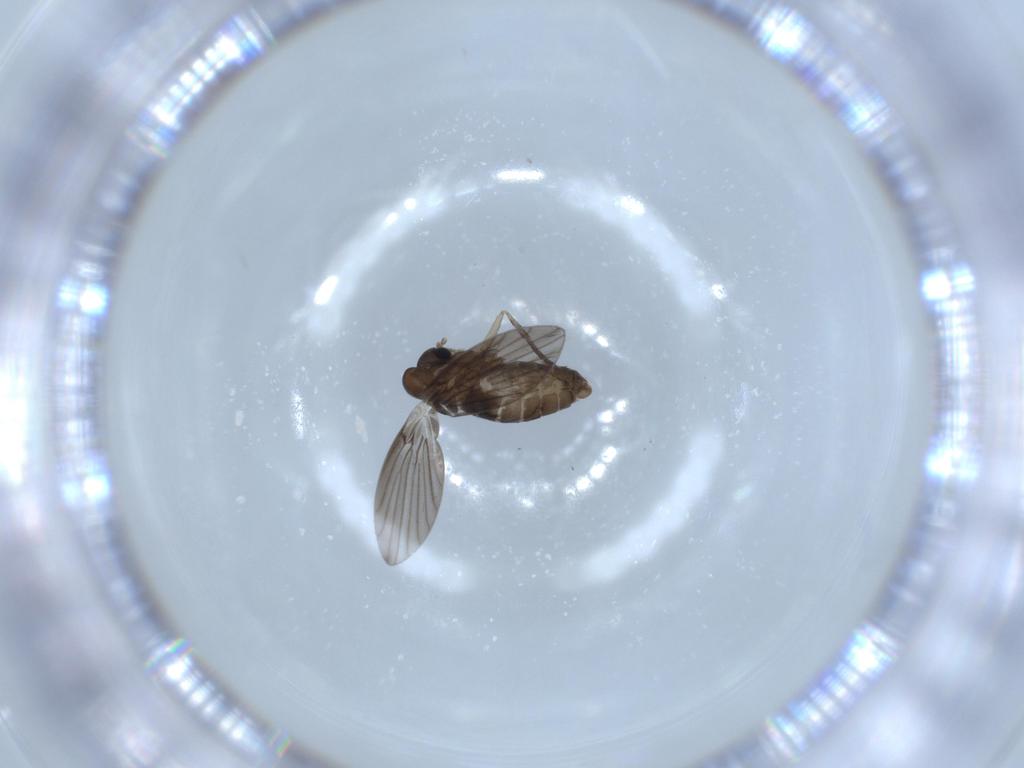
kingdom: Animalia
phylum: Arthropoda
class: Insecta
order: Diptera
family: Psychodidae
